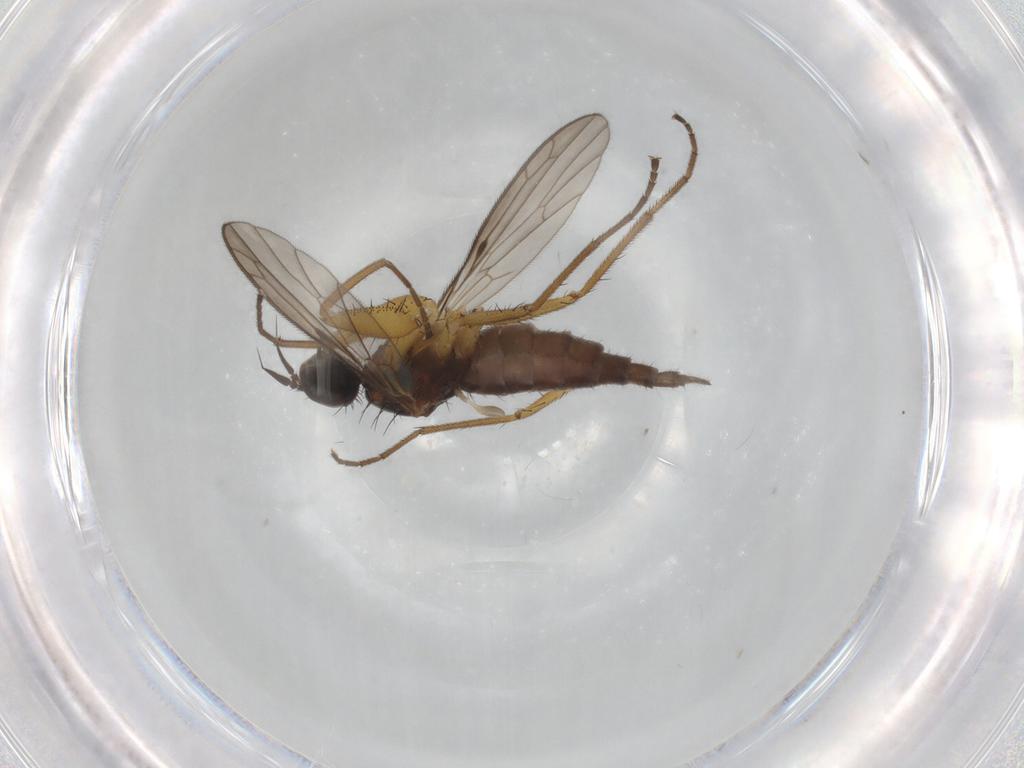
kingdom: Animalia
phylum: Arthropoda
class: Insecta
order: Diptera
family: Chironomidae
